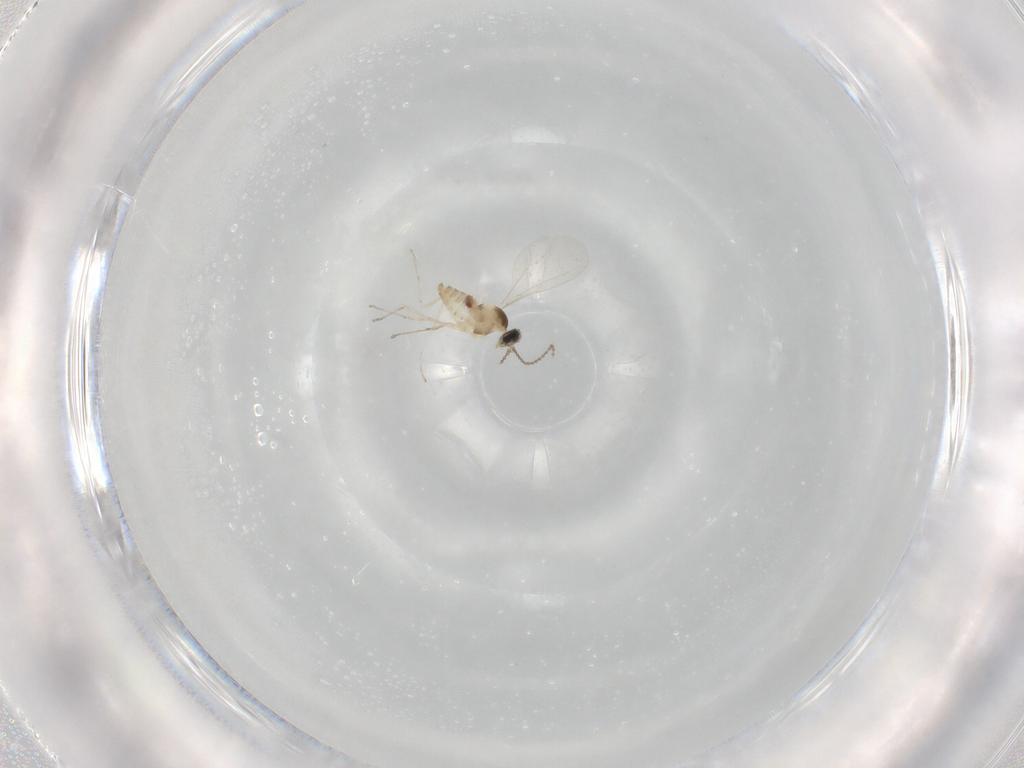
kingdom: Animalia
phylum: Arthropoda
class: Insecta
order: Diptera
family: Cecidomyiidae
